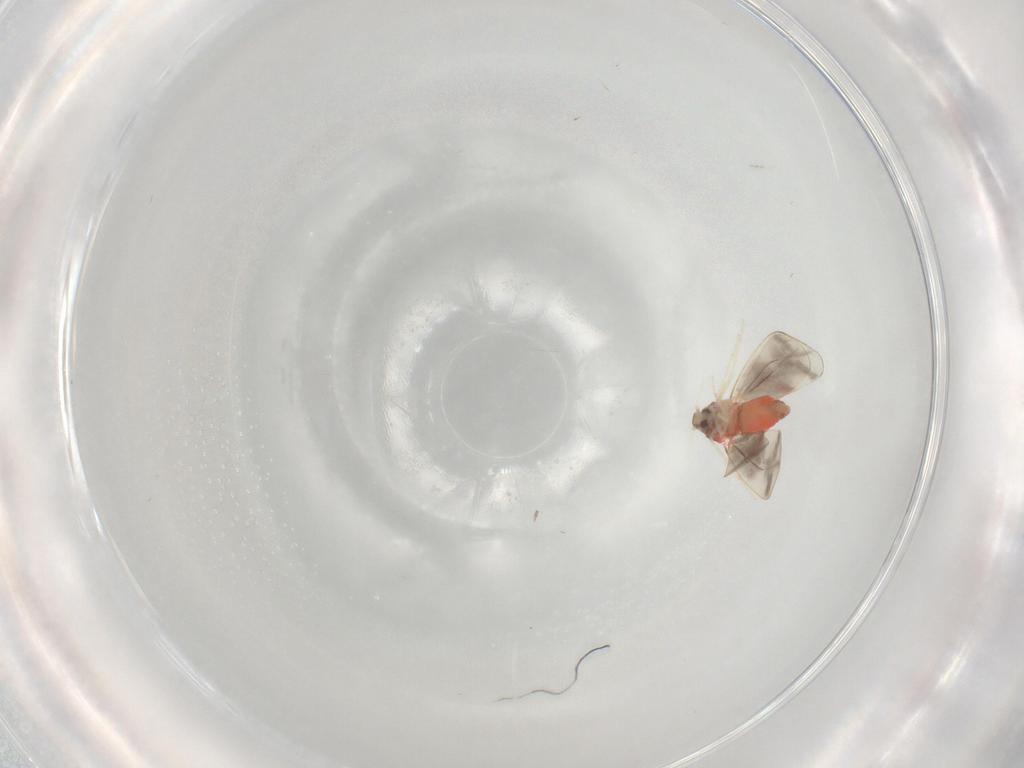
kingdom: Animalia
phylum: Arthropoda
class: Insecta
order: Hemiptera
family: Aleyrodidae
